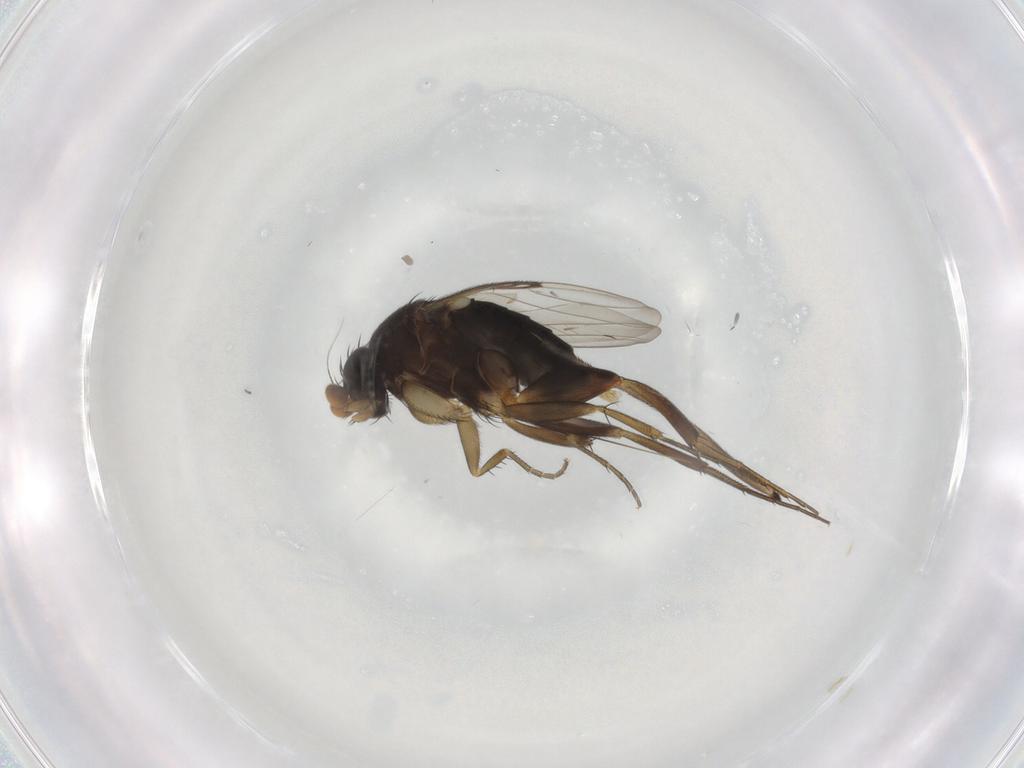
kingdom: Animalia
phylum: Arthropoda
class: Insecta
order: Diptera
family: Phoridae
